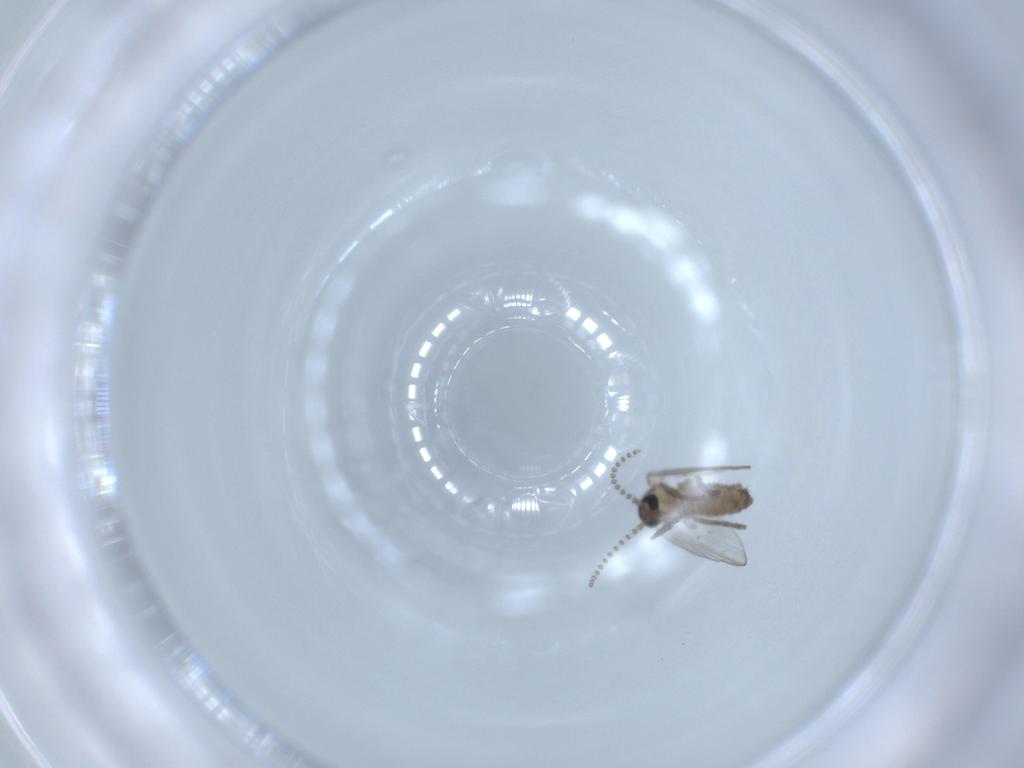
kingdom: Animalia
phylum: Arthropoda
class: Insecta
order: Diptera
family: Psychodidae
